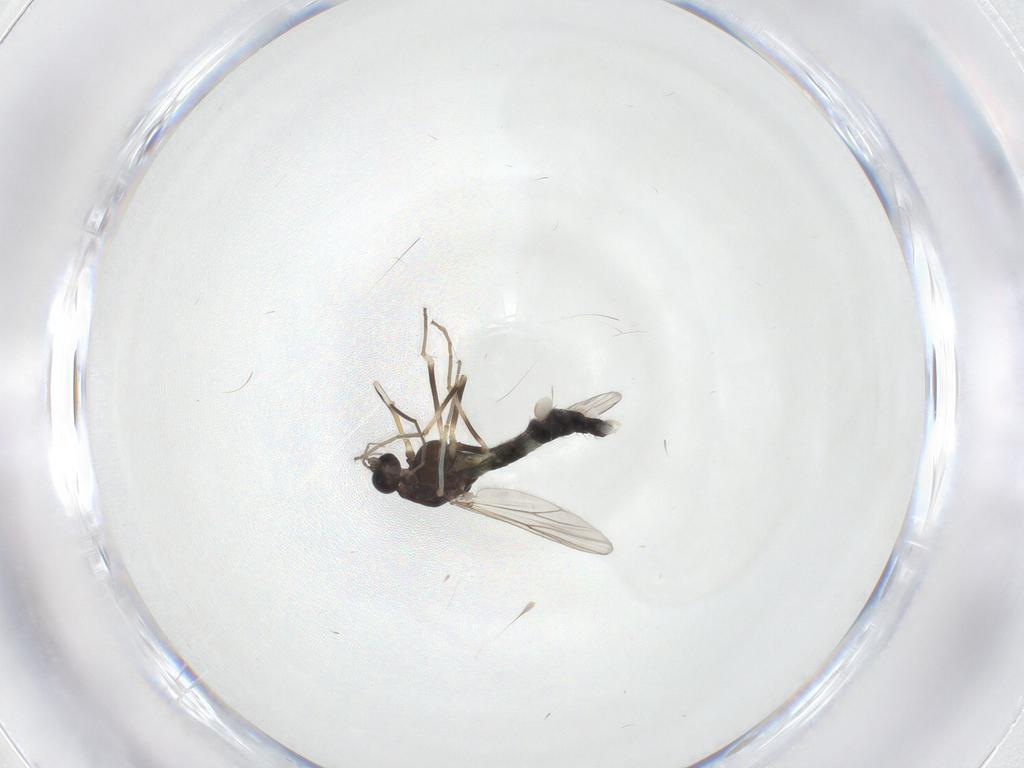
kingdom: Animalia
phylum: Arthropoda
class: Insecta
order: Diptera
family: Chironomidae
